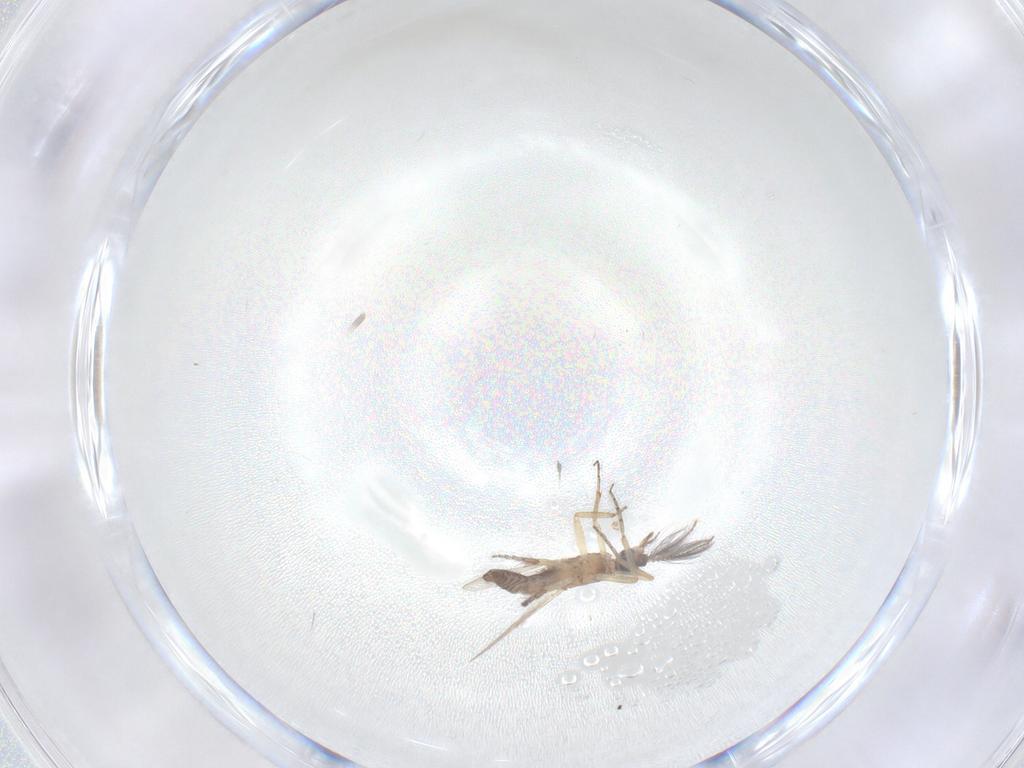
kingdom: Animalia
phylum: Arthropoda
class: Insecta
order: Diptera
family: Ceratopogonidae
